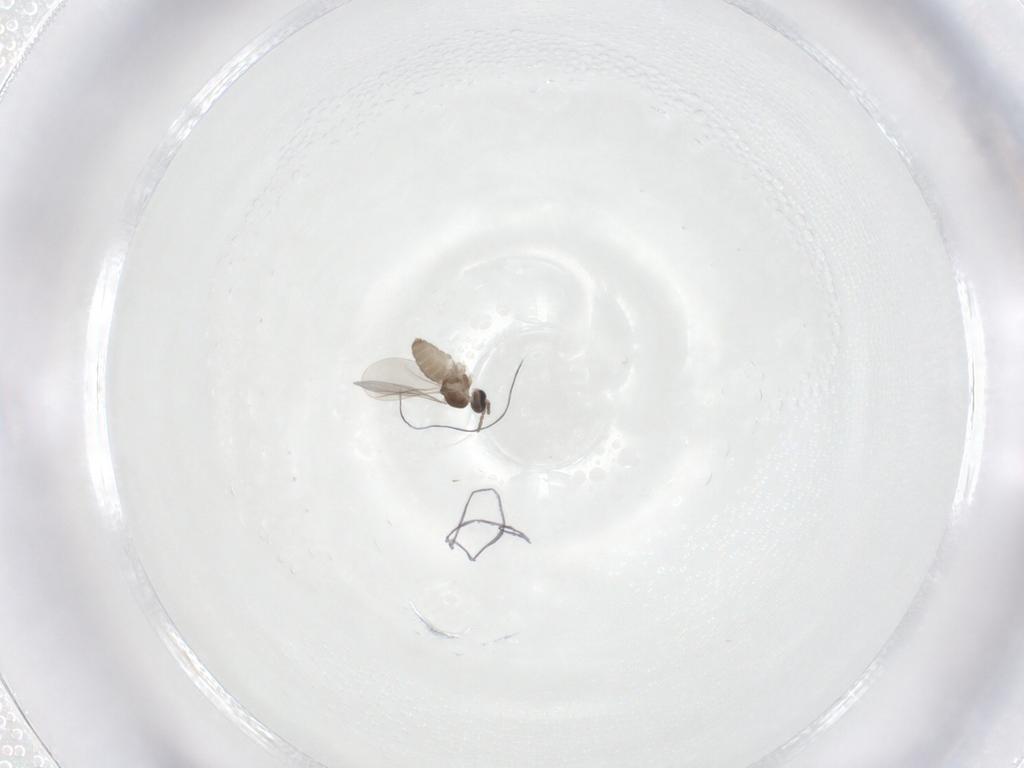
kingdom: Animalia
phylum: Arthropoda
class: Insecta
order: Diptera
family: Cecidomyiidae
